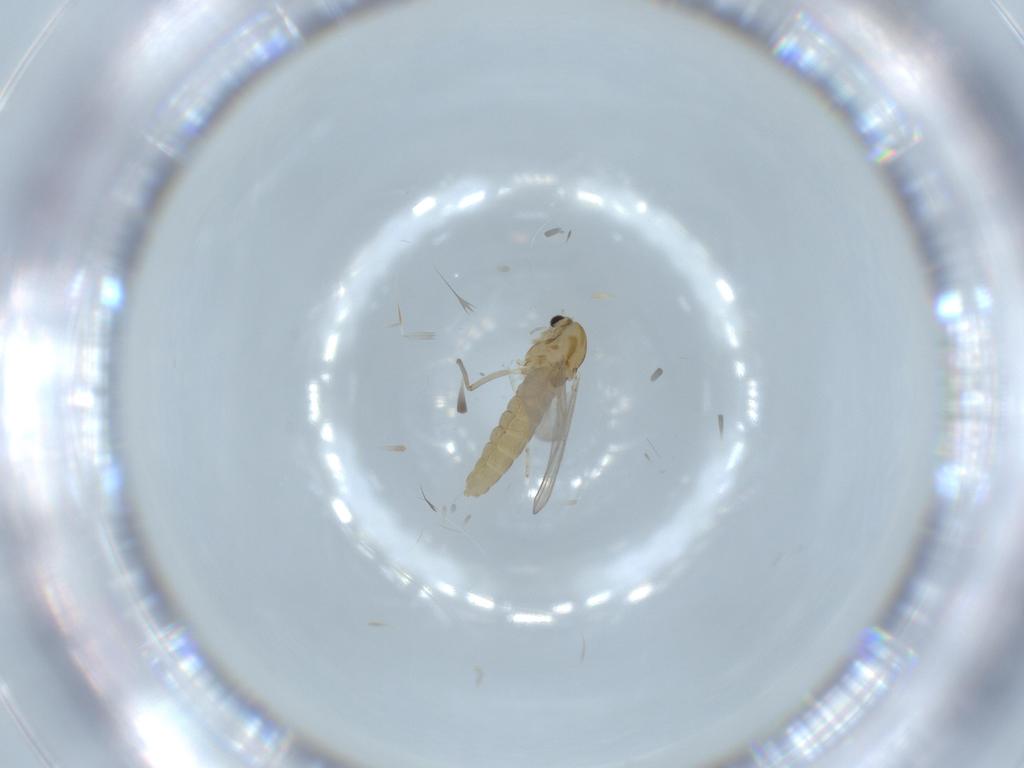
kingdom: Animalia
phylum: Arthropoda
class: Insecta
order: Diptera
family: Chironomidae
